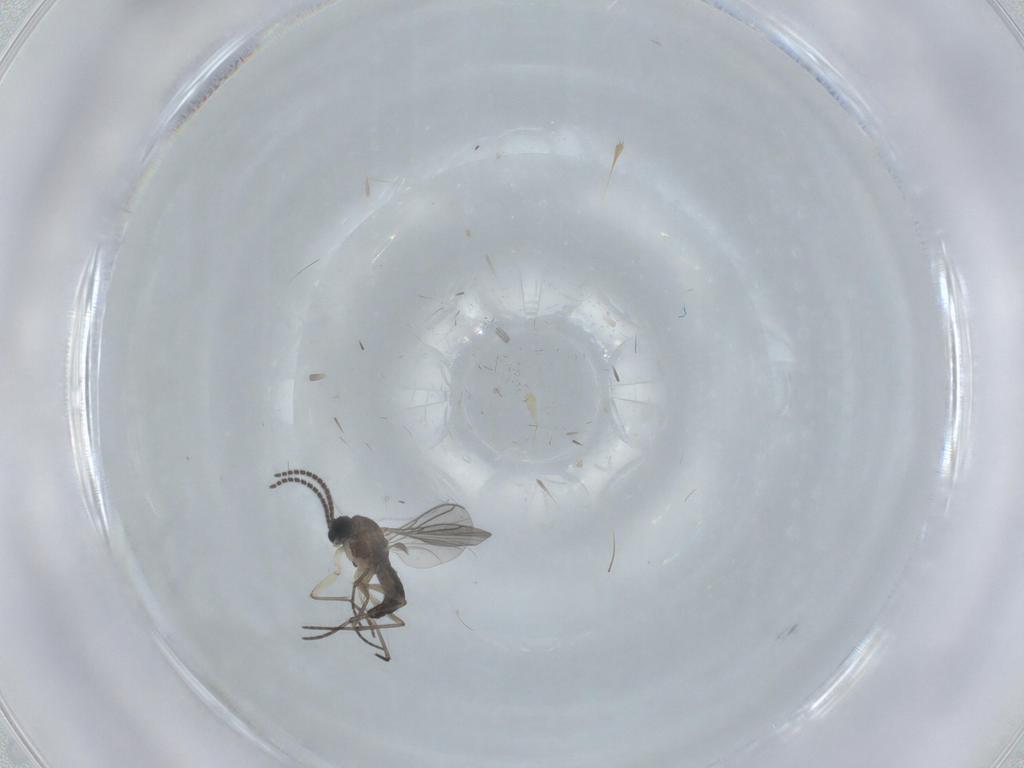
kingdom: Animalia
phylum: Arthropoda
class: Insecta
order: Diptera
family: Sciaridae
